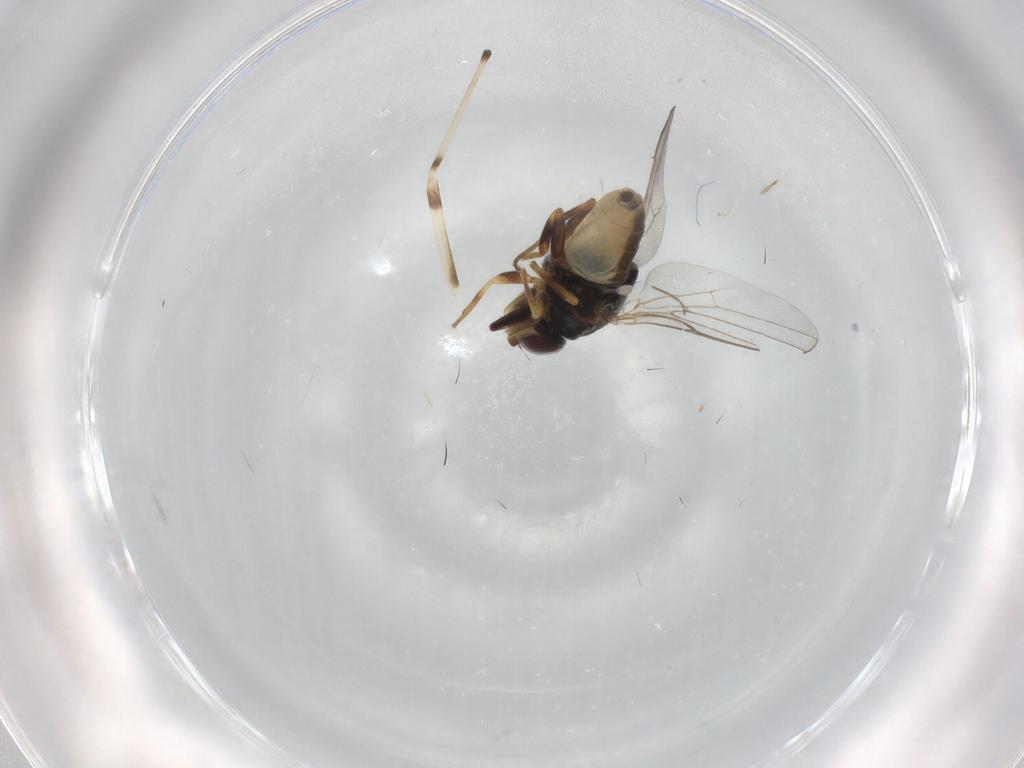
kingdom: Animalia
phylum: Arthropoda
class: Insecta
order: Diptera
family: Chloropidae
